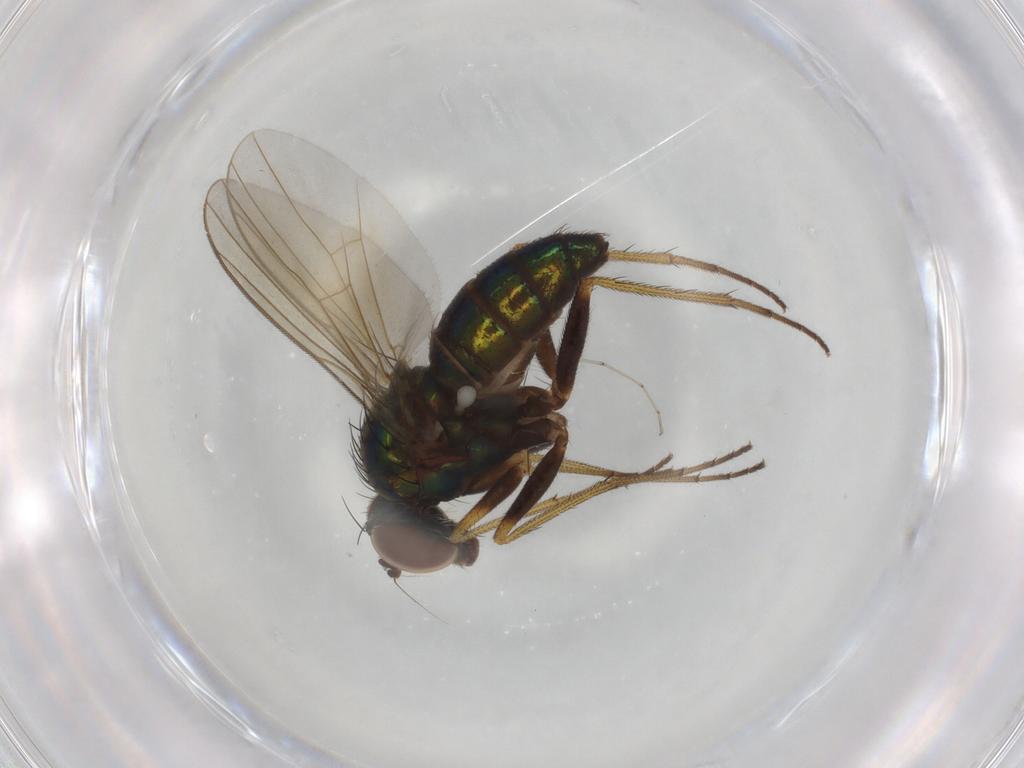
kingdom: Animalia
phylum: Arthropoda
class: Insecta
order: Diptera
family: Dolichopodidae
